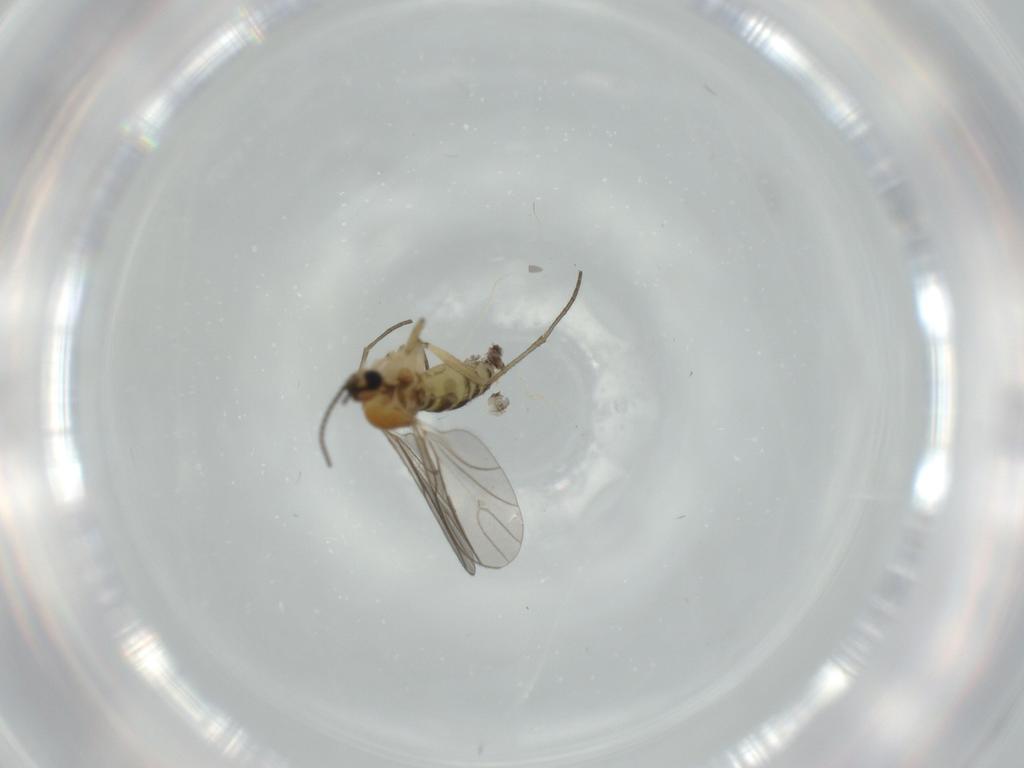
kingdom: Animalia
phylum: Arthropoda
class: Insecta
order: Diptera
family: Sciaridae
